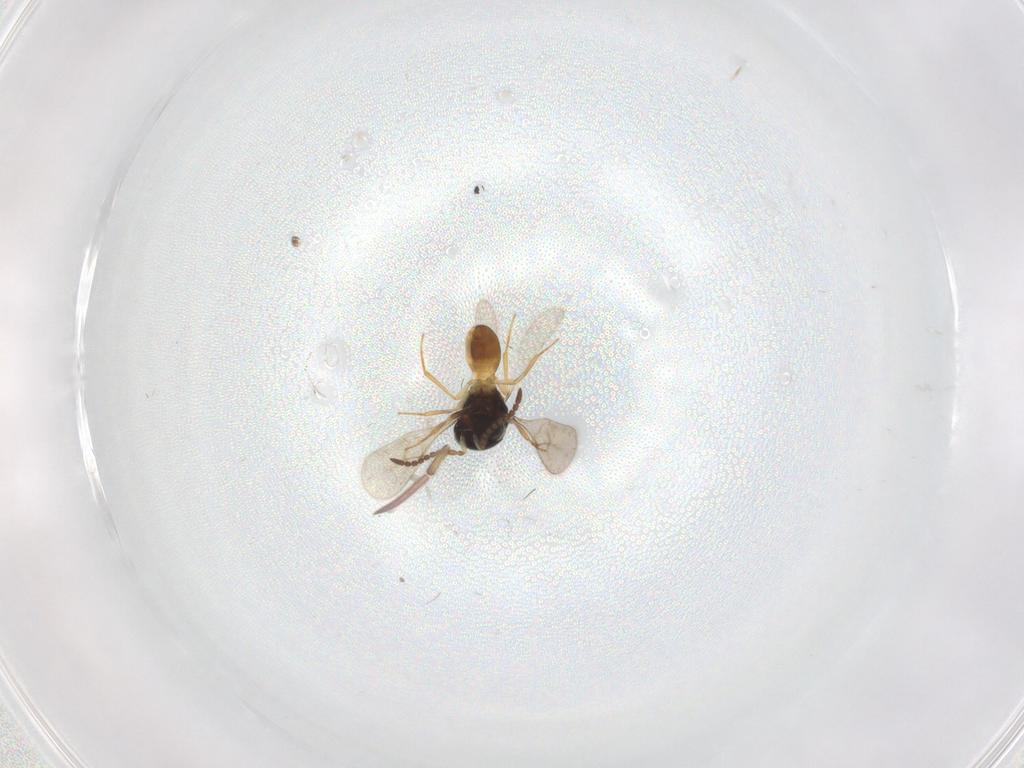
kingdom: Animalia
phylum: Arthropoda
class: Insecta
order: Hymenoptera
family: Scelionidae
